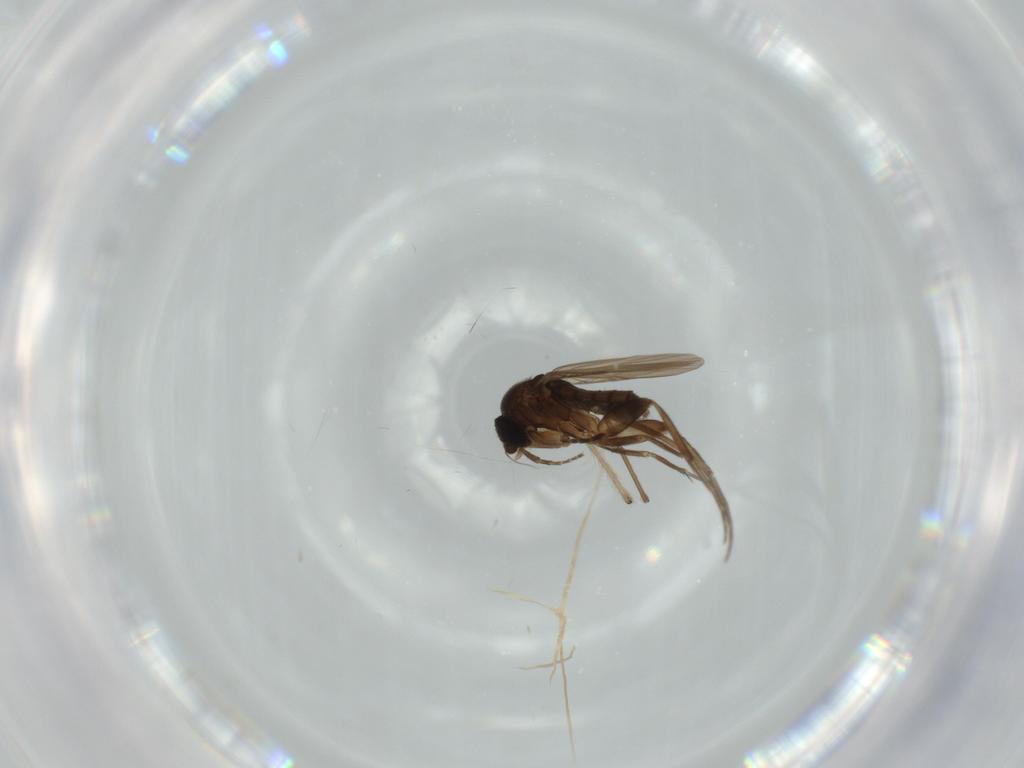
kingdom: Animalia
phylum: Arthropoda
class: Insecta
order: Diptera
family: Phoridae
